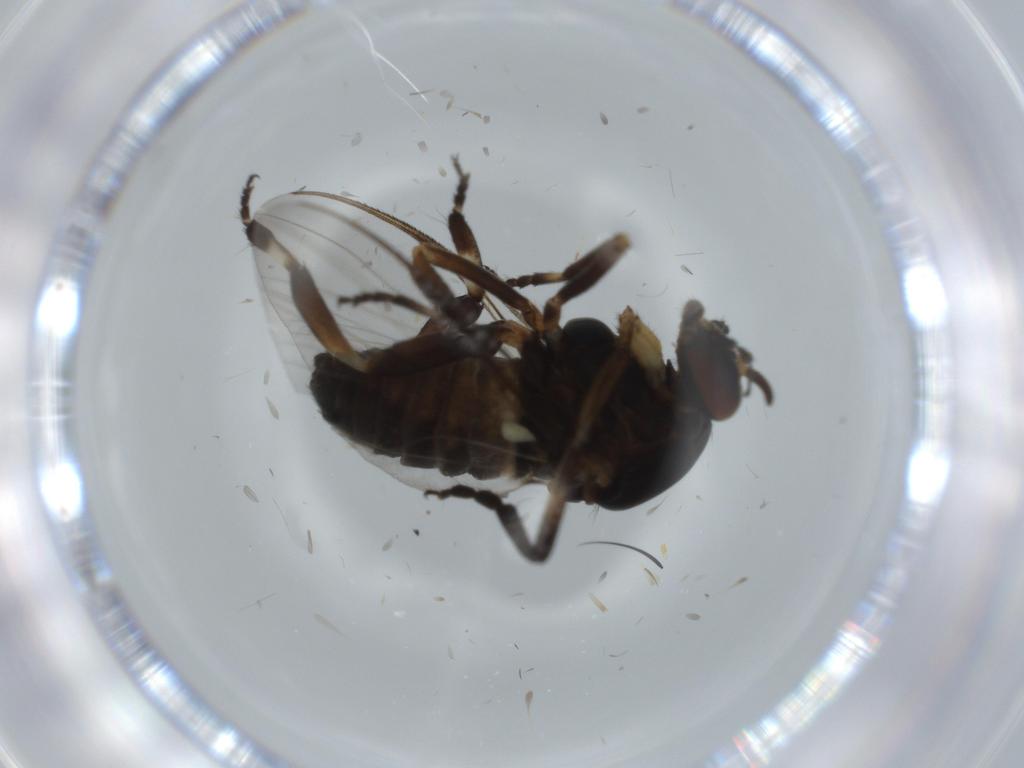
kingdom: Animalia
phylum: Arthropoda
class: Insecta
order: Diptera
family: Cecidomyiidae
